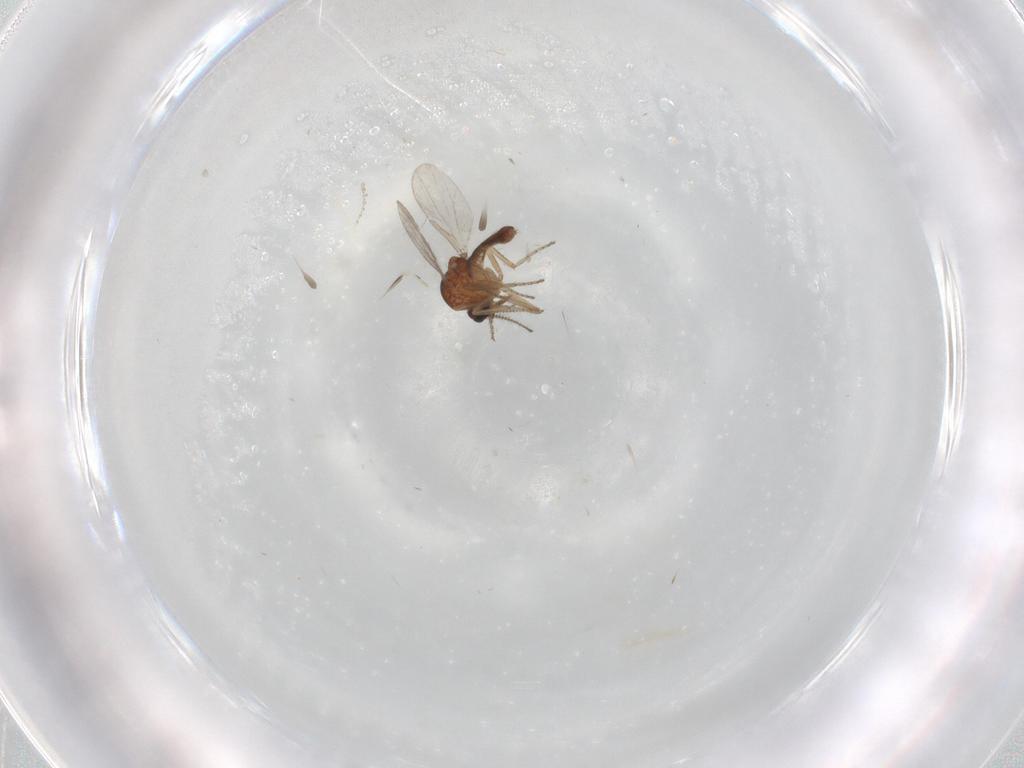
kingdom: Animalia
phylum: Arthropoda
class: Insecta
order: Diptera
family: Cecidomyiidae
